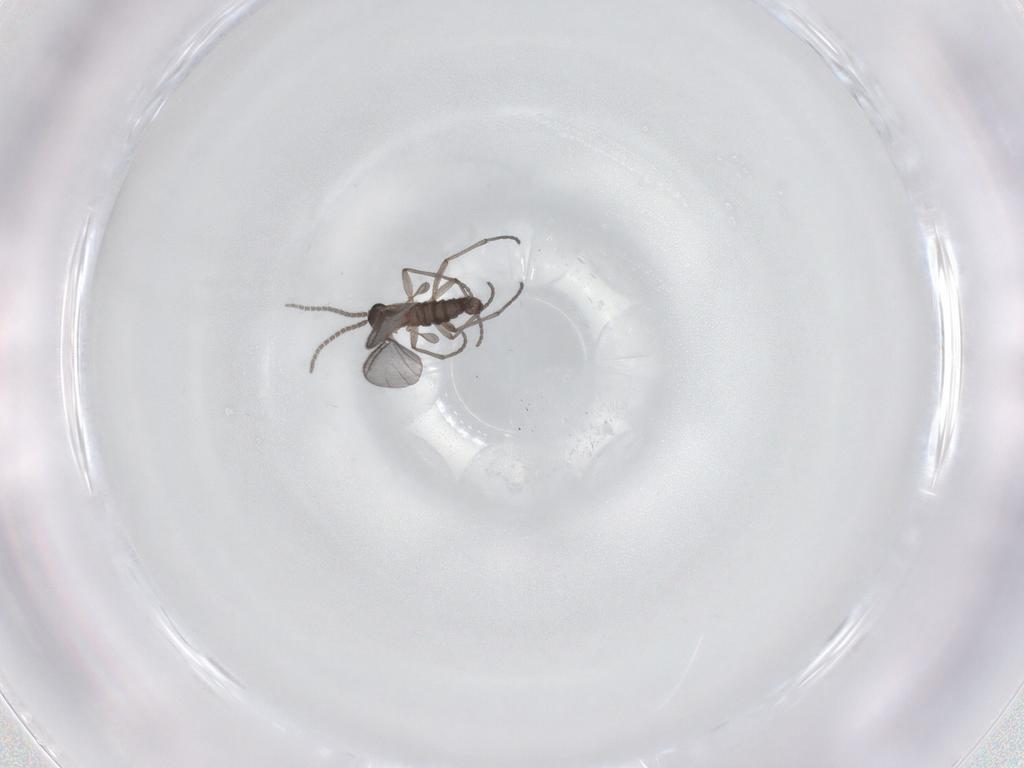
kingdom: Animalia
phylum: Arthropoda
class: Insecta
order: Diptera
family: Sciaridae
